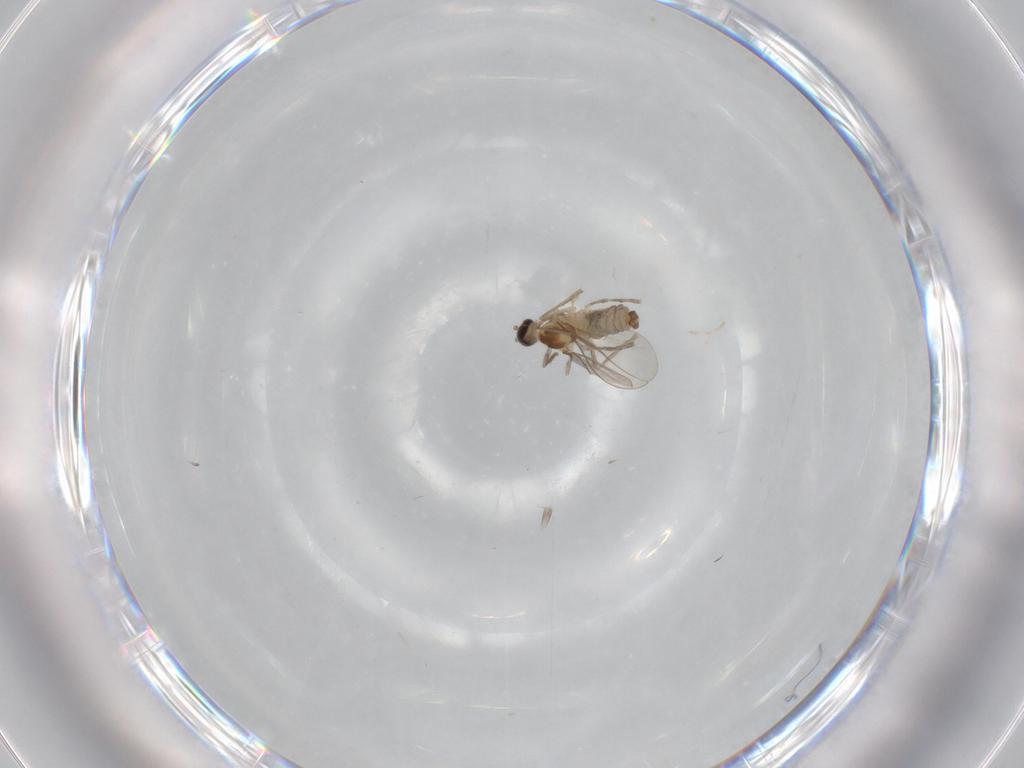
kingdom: Animalia
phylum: Arthropoda
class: Insecta
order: Diptera
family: Cecidomyiidae
